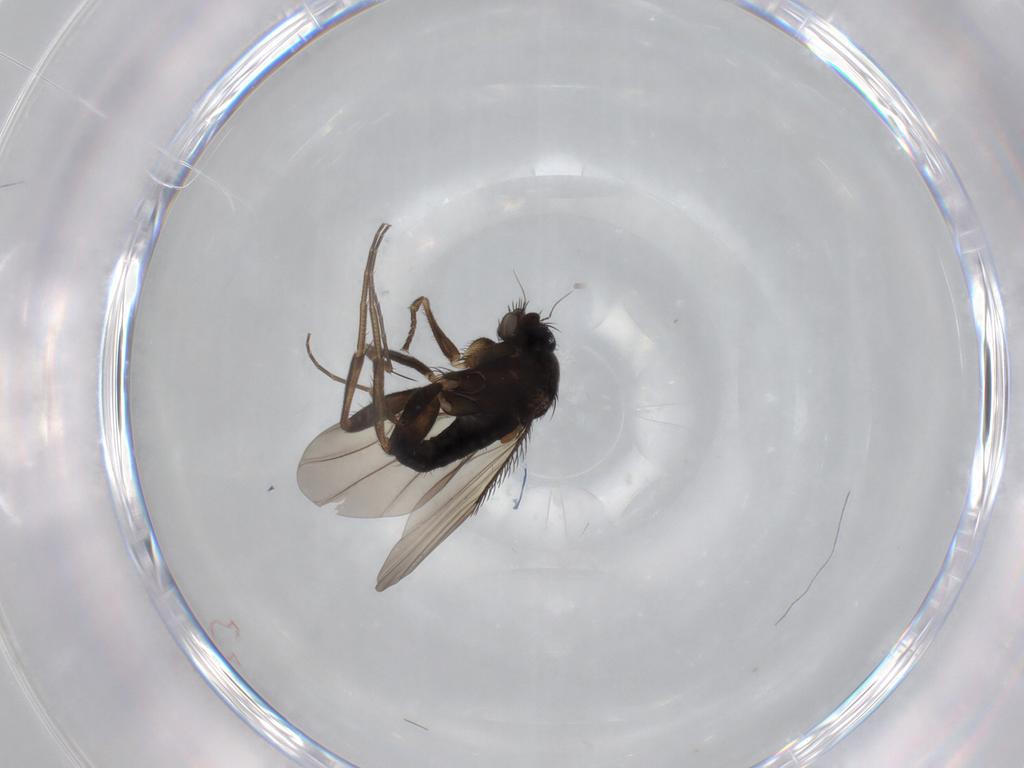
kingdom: Animalia
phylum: Arthropoda
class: Insecta
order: Diptera
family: Phoridae
